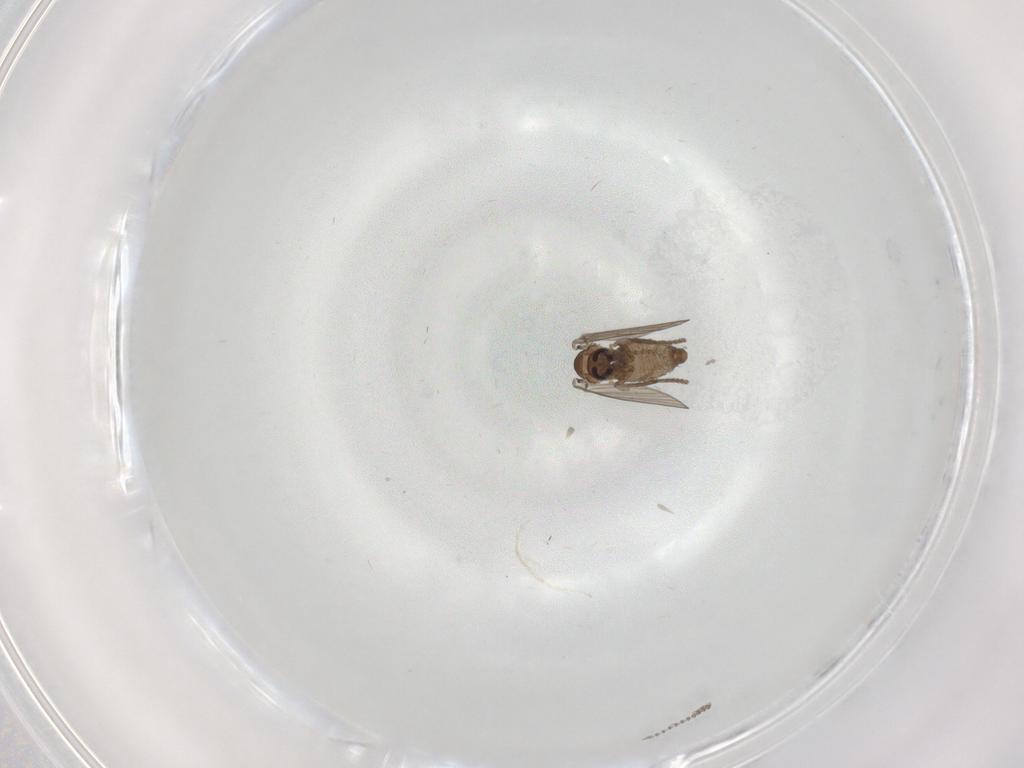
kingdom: Animalia
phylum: Arthropoda
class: Insecta
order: Diptera
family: Psychodidae
